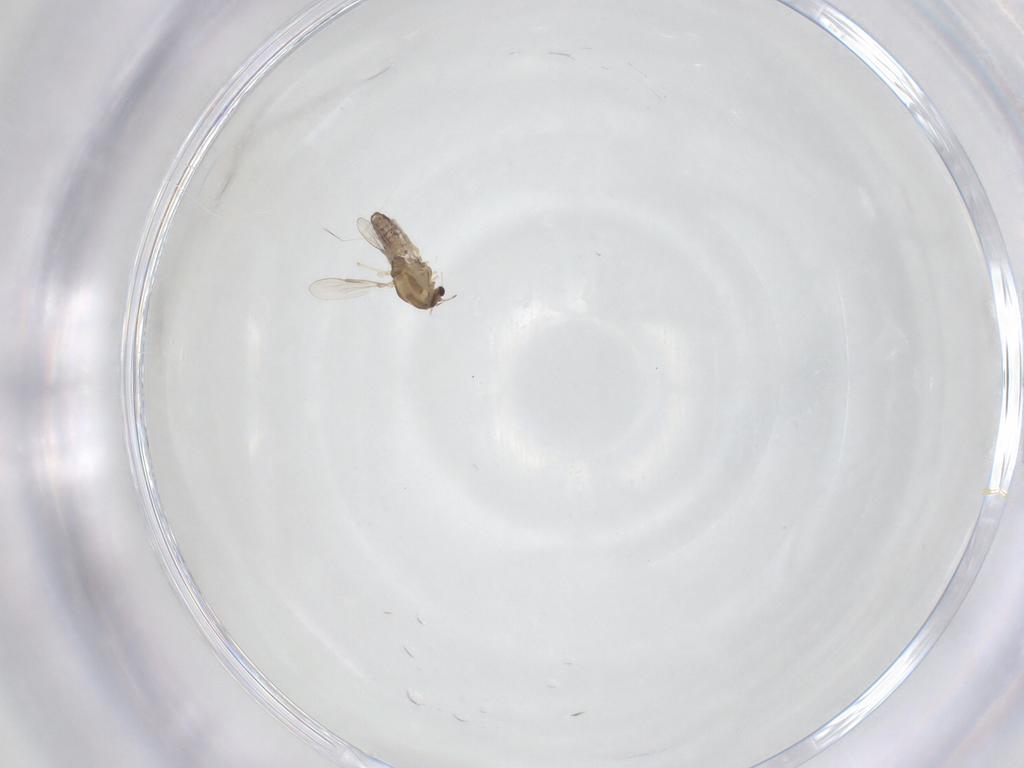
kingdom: Animalia
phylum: Arthropoda
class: Insecta
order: Diptera
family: Chironomidae
